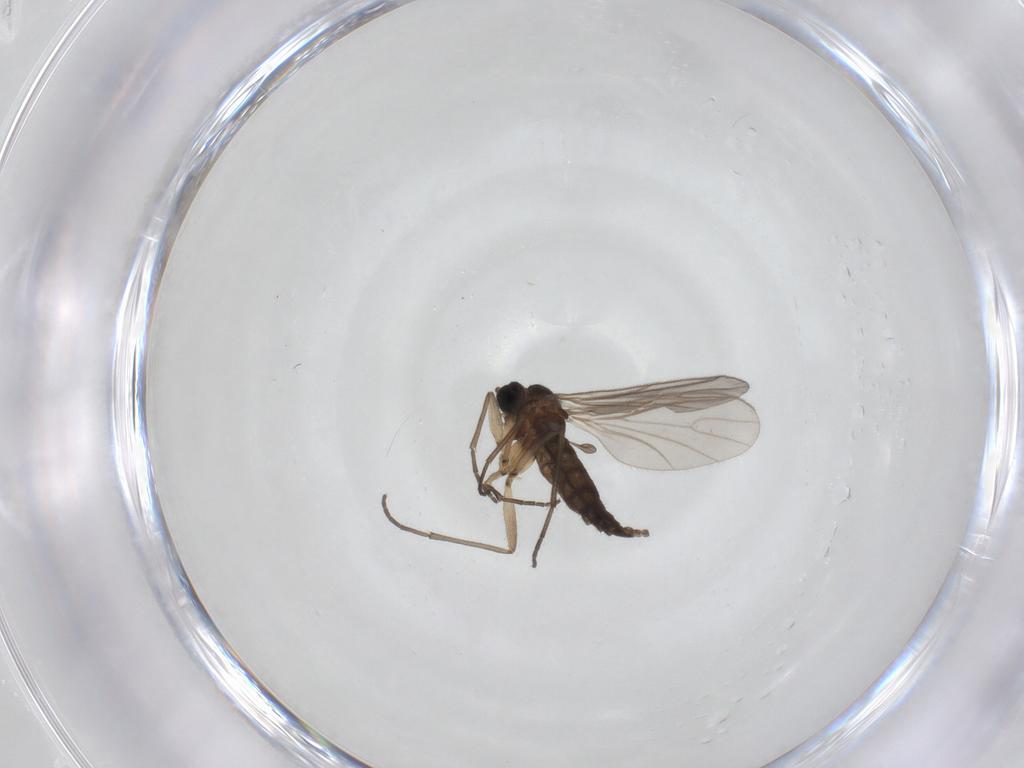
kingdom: Animalia
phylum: Arthropoda
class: Insecta
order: Diptera
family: Sciaridae
